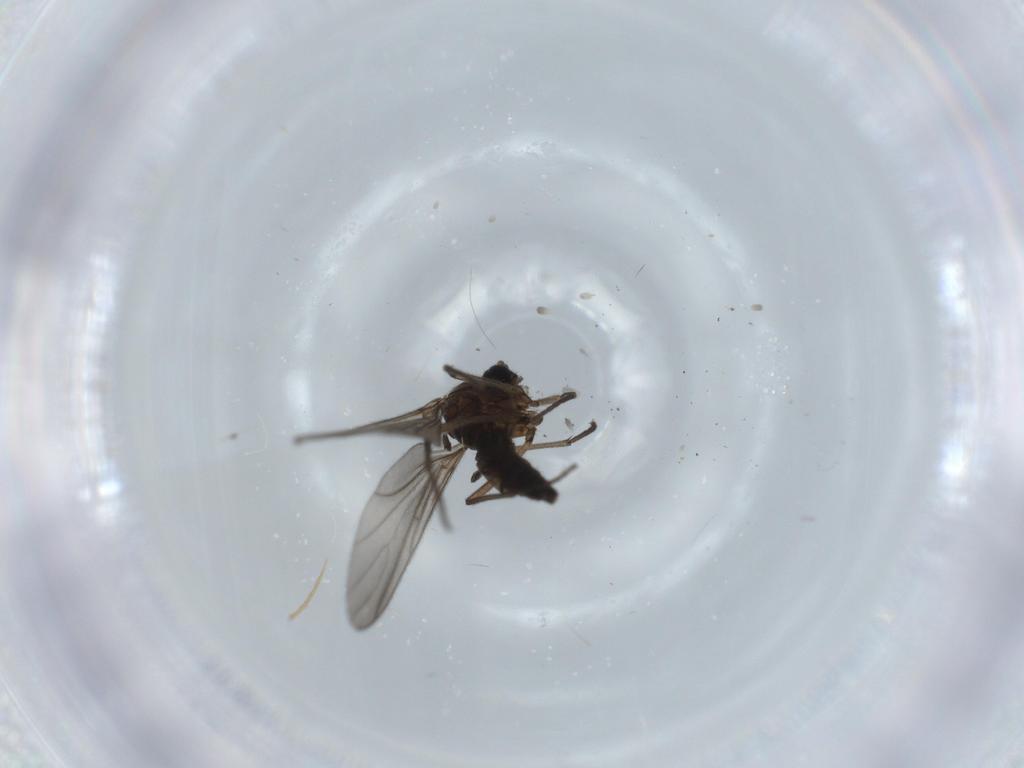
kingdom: Animalia
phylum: Arthropoda
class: Insecta
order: Diptera
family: Sciaridae
